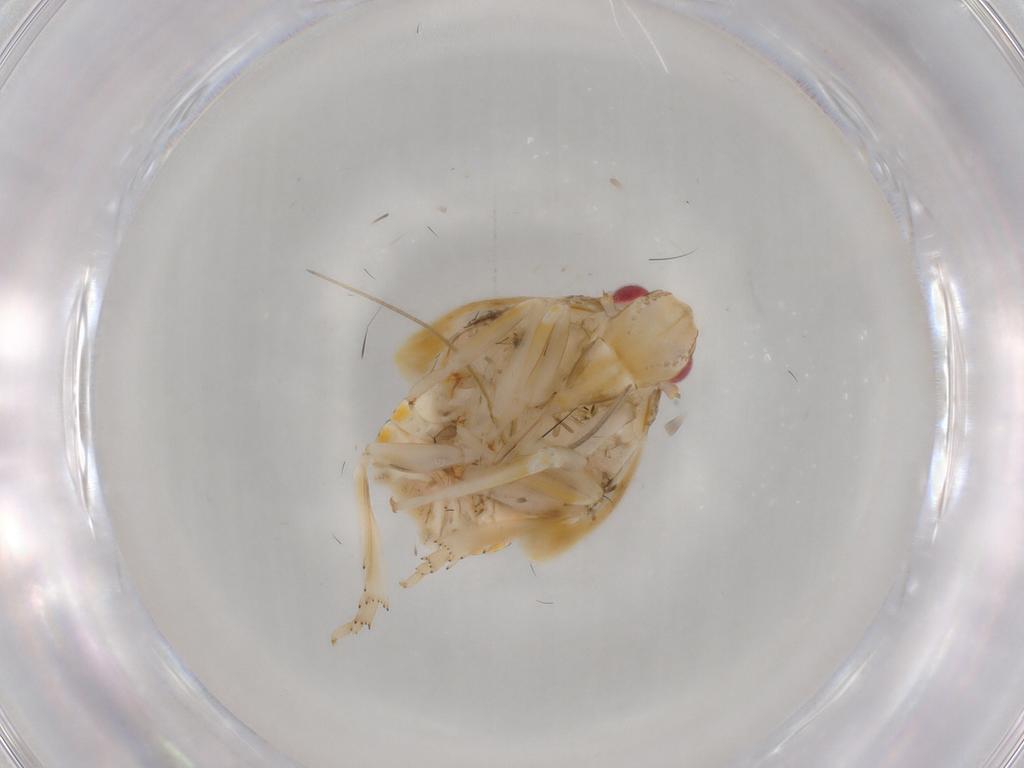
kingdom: Animalia
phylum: Arthropoda
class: Insecta
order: Hemiptera
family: Flatidae
